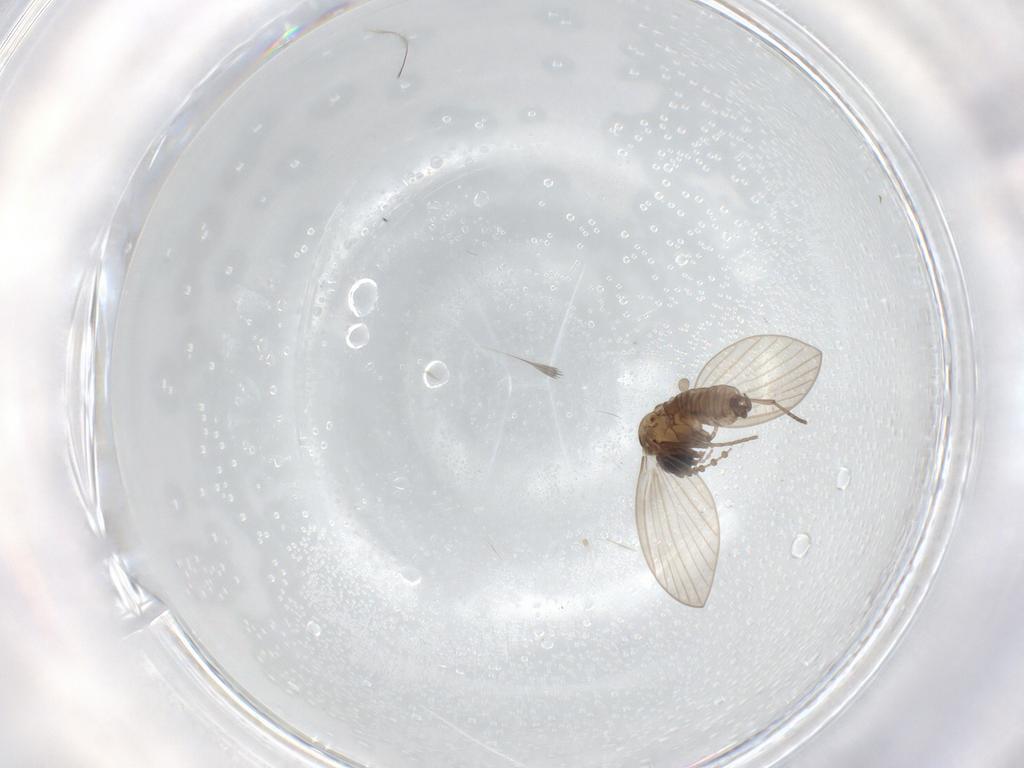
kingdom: Animalia
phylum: Arthropoda
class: Insecta
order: Diptera
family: Psychodidae
